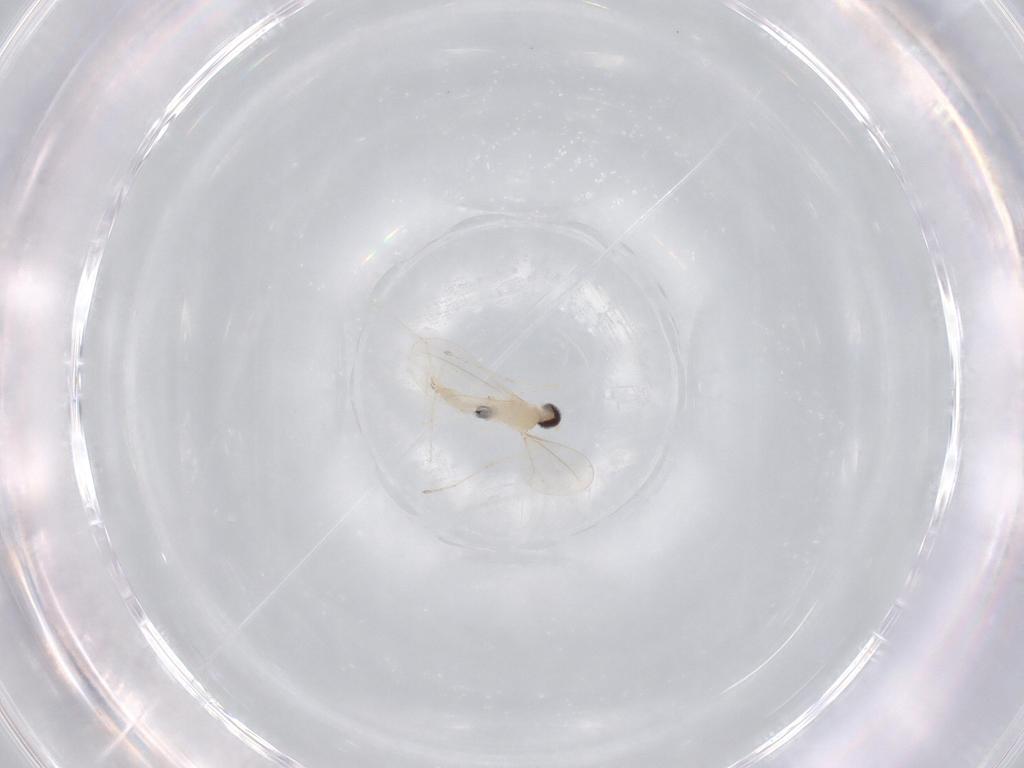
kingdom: Animalia
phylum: Arthropoda
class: Insecta
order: Diptera
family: Cecidomyiidae
